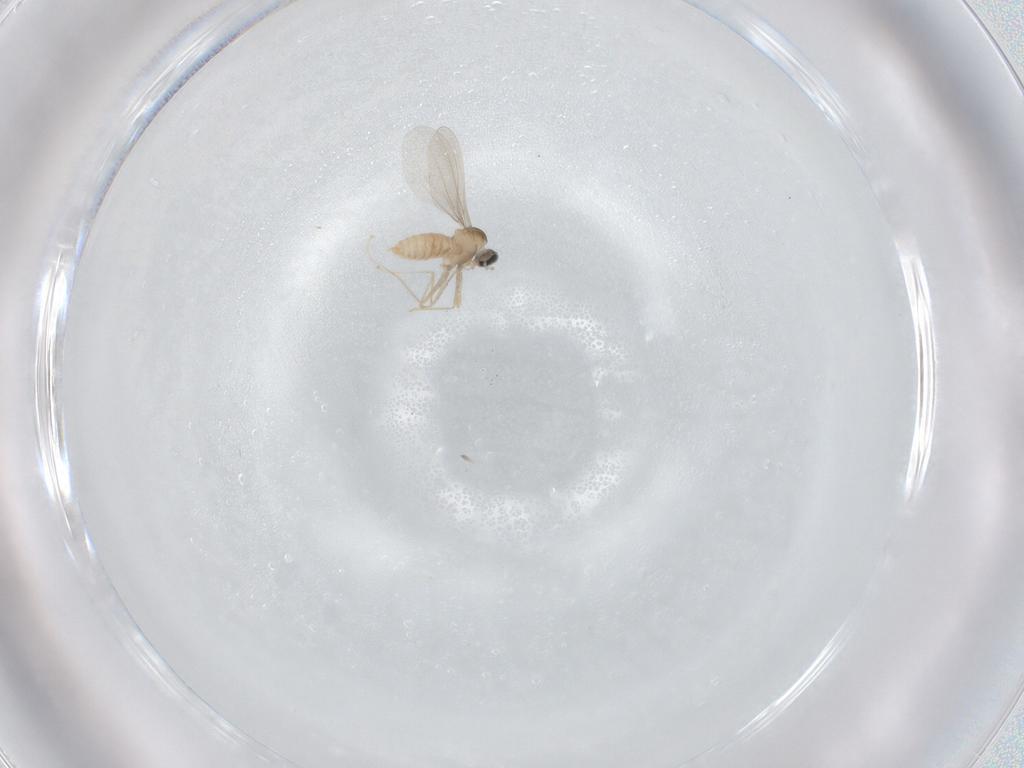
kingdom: Animalia
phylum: Arthropoda
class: Insecta
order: Diptera
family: Cecidomyiidae
